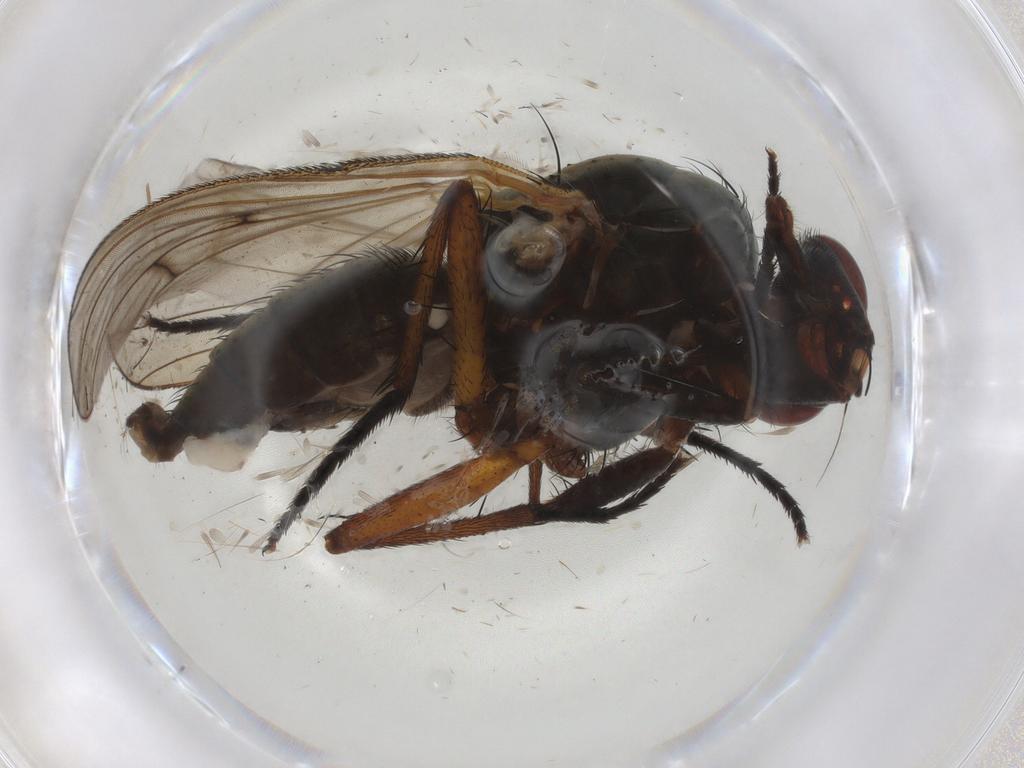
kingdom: Animalia
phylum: Arthropoda
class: Insecta
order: Diptera
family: Anthomyiidae
